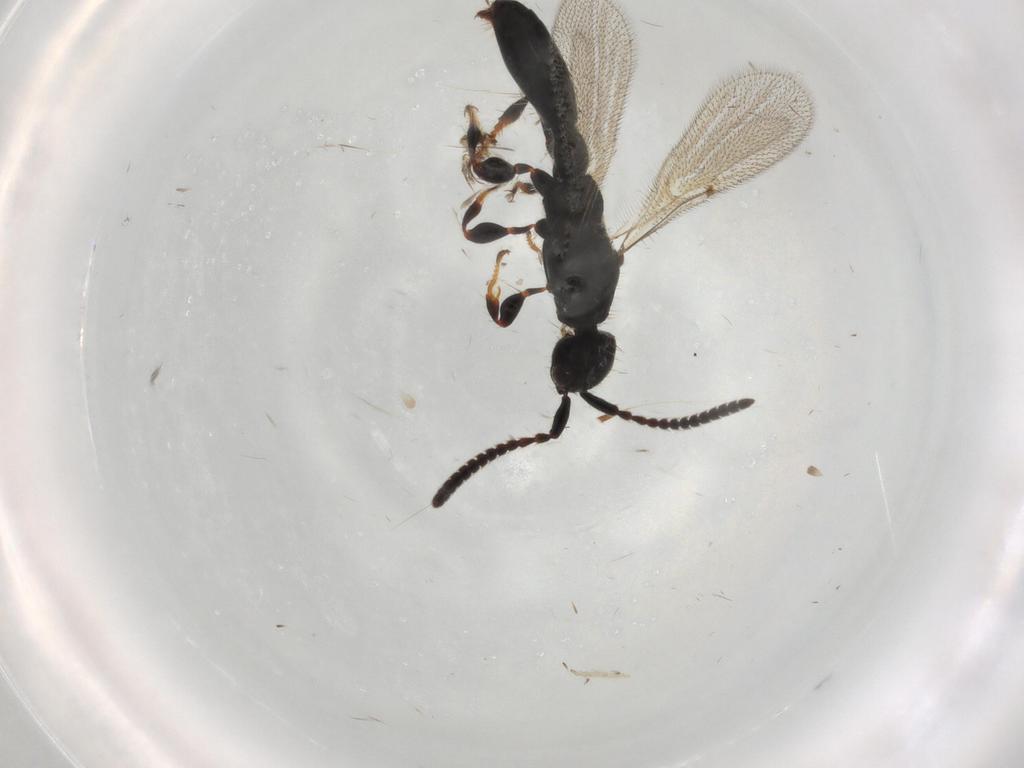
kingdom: Animalia
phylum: Arthropoda
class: Insecta
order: Hymenoptera
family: Diapriidae
